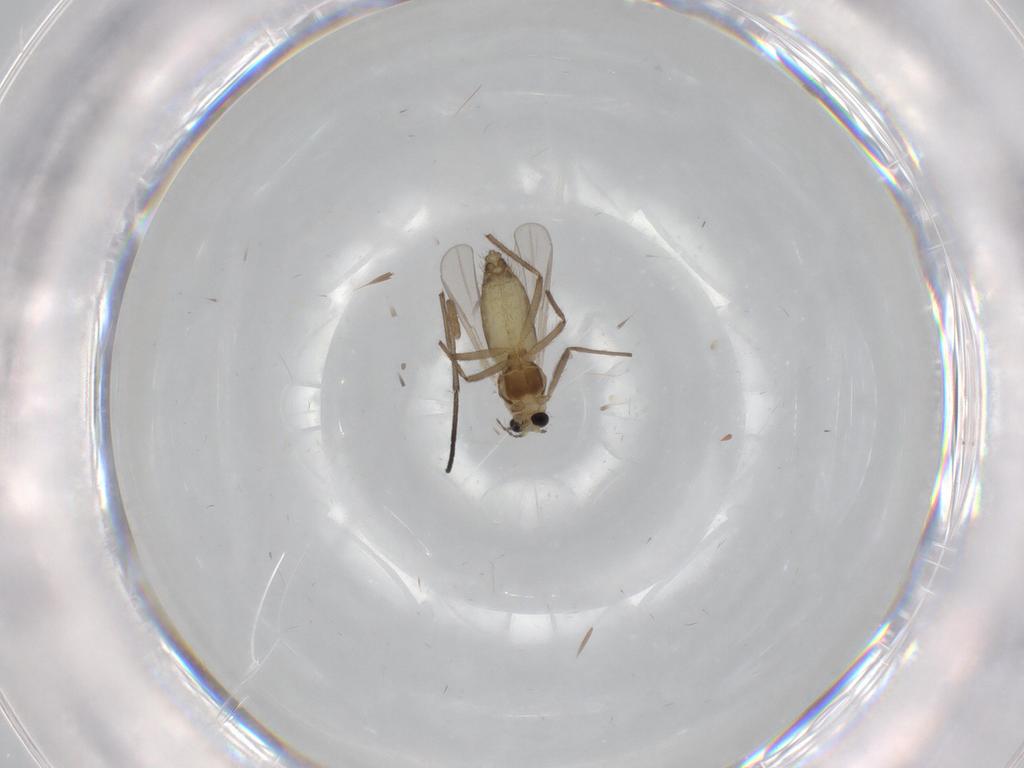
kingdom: Animalia
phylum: Arthropoda
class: Insecta
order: Diptera
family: Chironomidae
